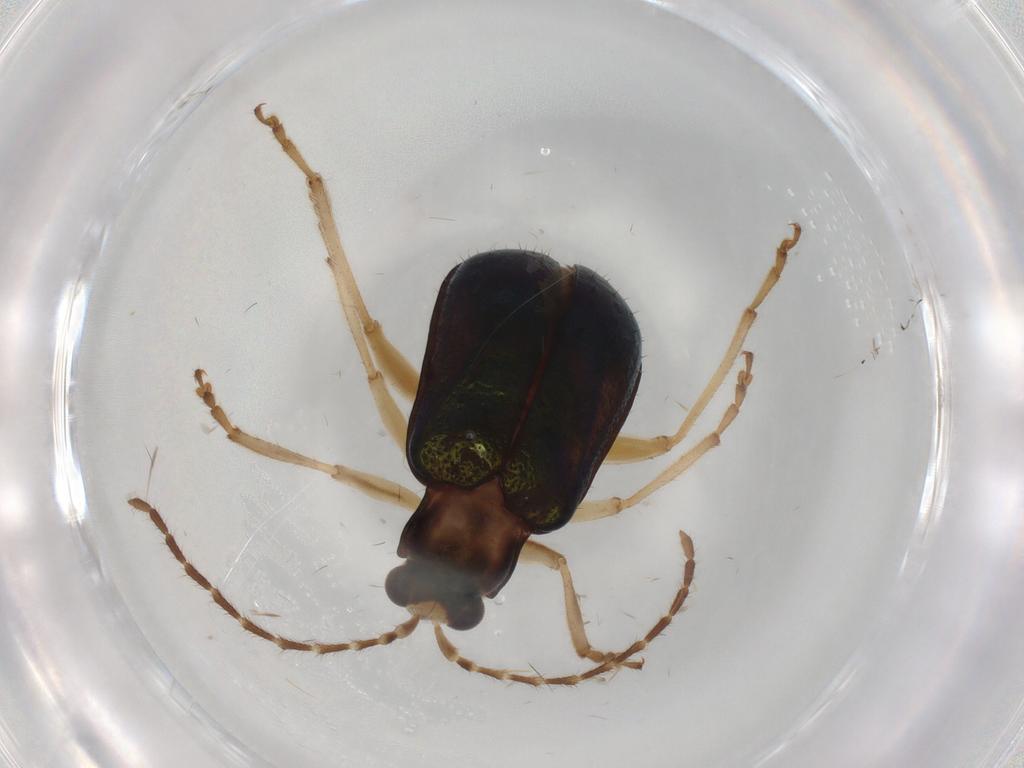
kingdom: Animalia
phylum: Arthropoda
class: Insecta
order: Coleoptera
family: Chrysomelidae
